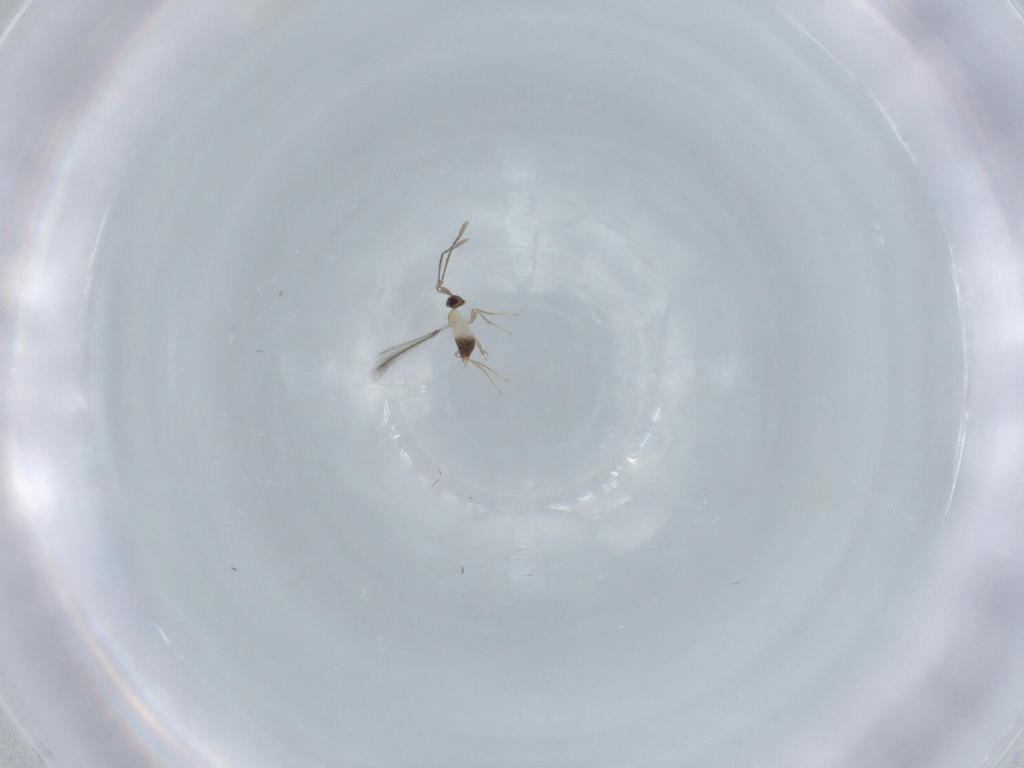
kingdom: Animalia
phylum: Arthropoda
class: Insecta
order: Hymenoptera
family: Mymaridae
